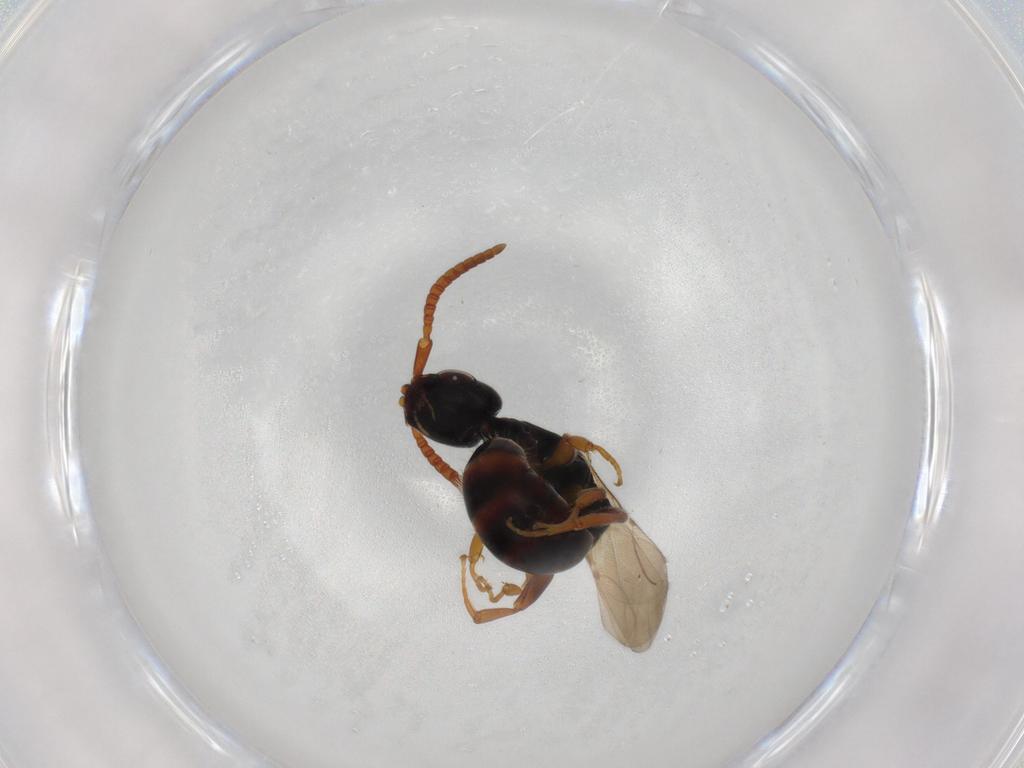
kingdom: Animalia
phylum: Arthropoda
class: Insecta
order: Hymenoptera
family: Bethylidae
